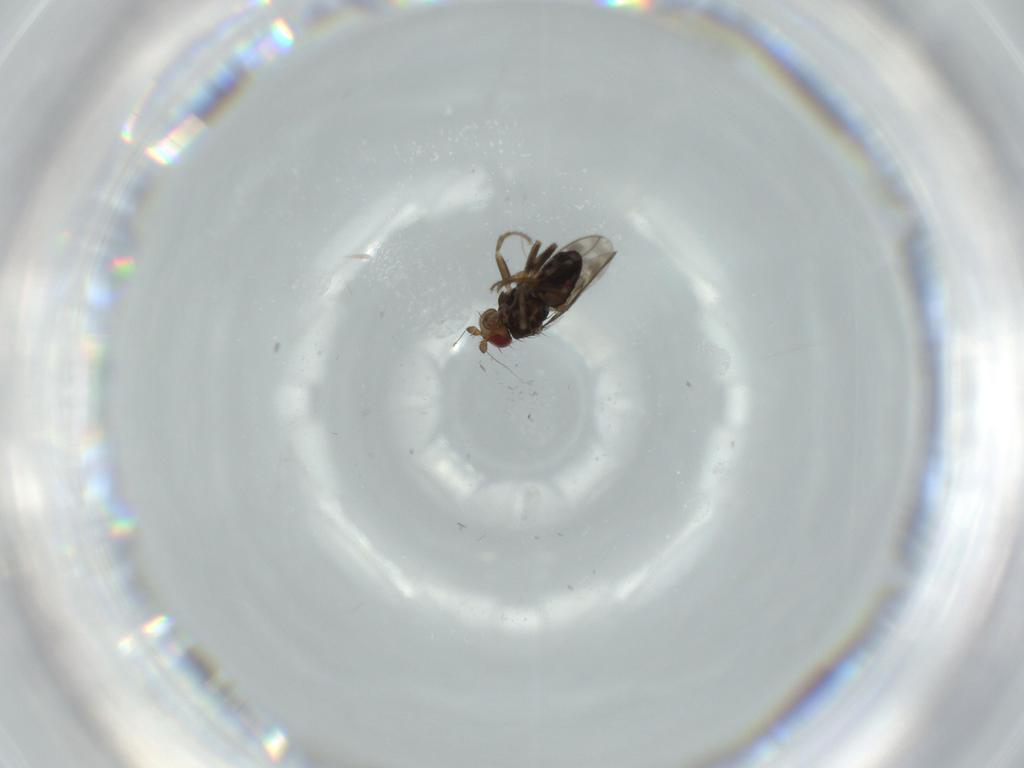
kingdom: Animalia
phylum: Arthropoda
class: Insecta
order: Diptera
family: Sphaeroceridae
